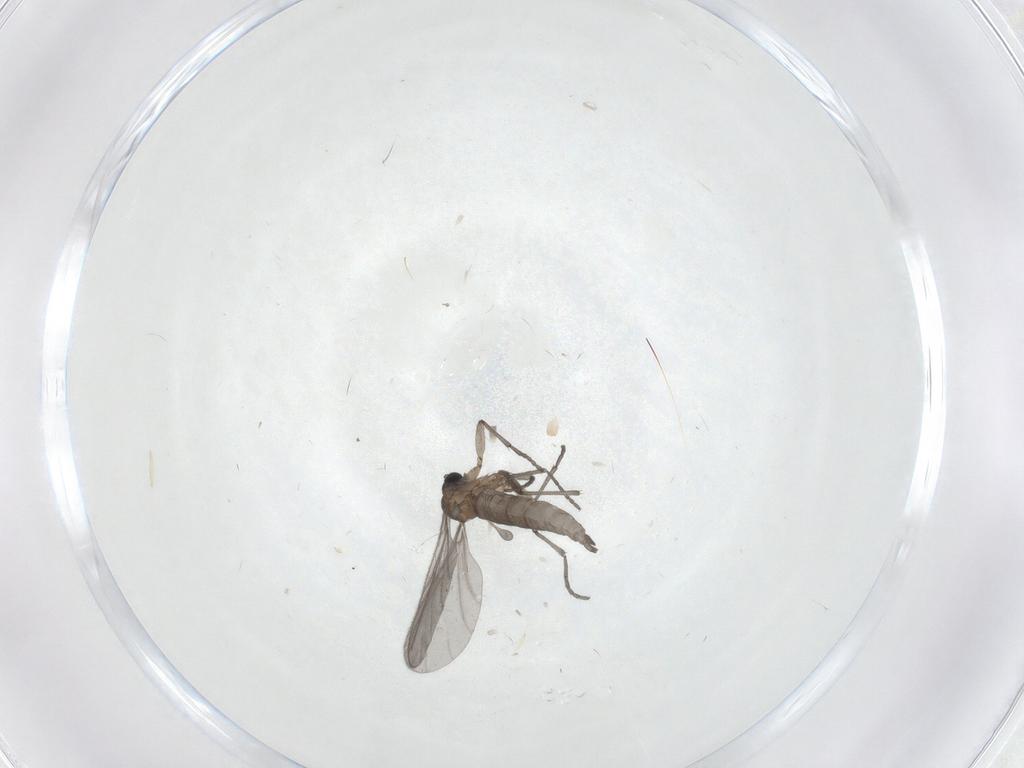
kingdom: Animalia
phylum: Arthropoda
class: Insecta
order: Diptera
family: Sciaridae
